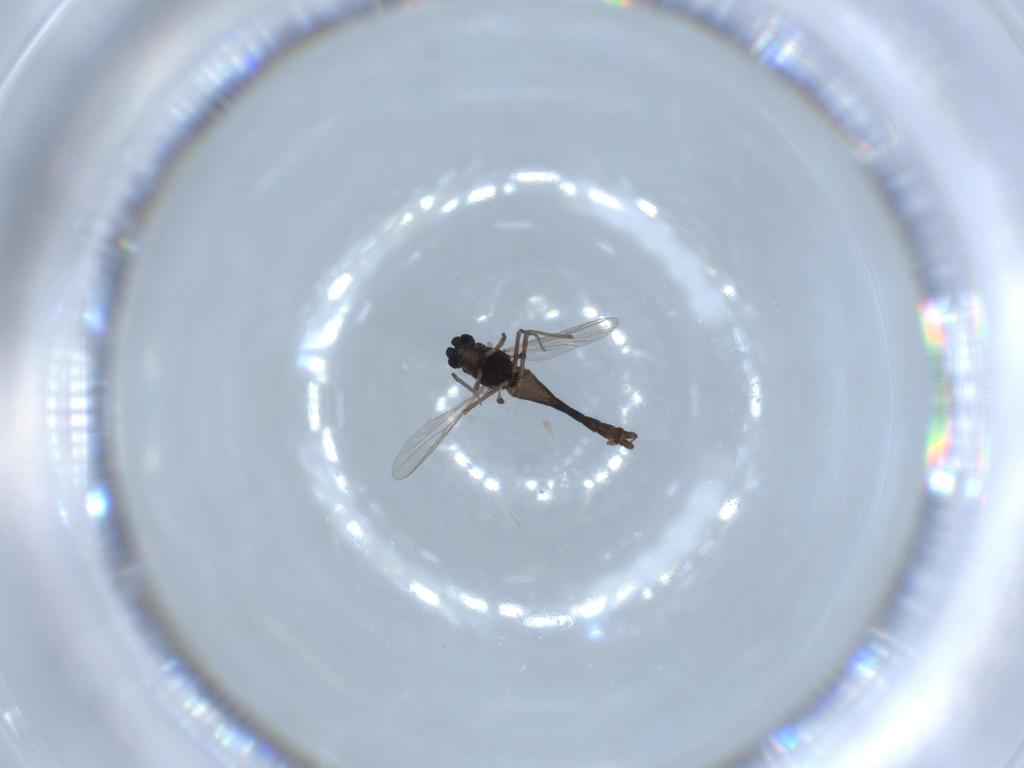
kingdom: Animalia
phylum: Arthropoda
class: Insecta
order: Diptera
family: Chironomidae
